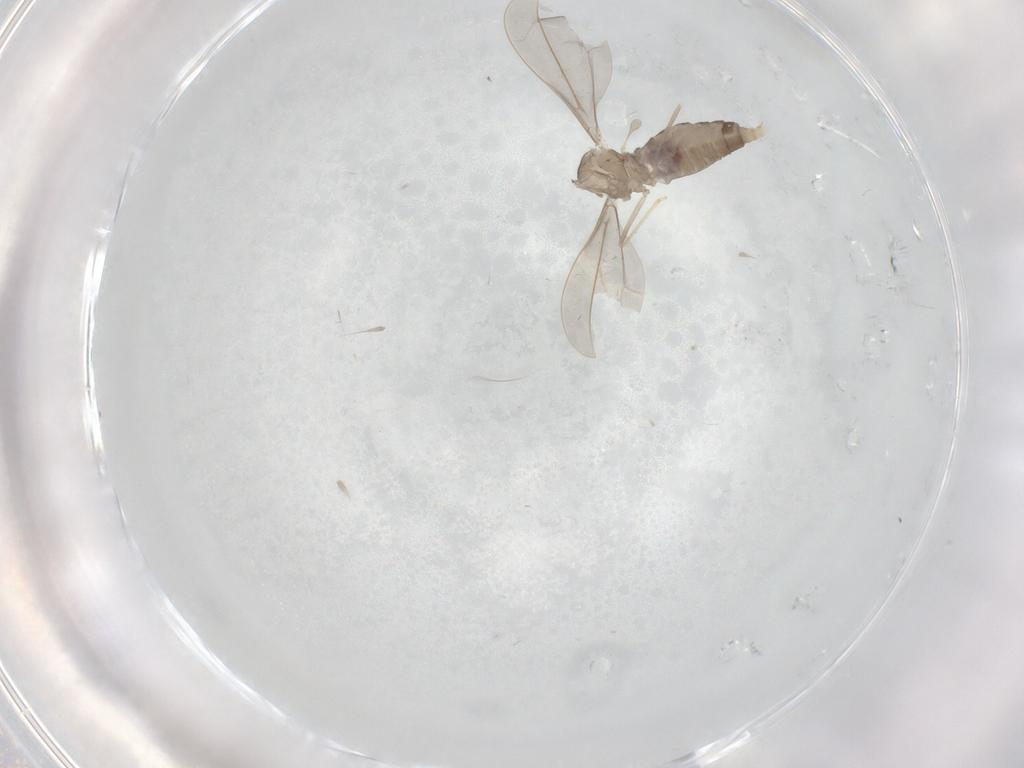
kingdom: Animalia
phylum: Arthropoda
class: Insecta
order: Diptera
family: Cecidomyiidae
